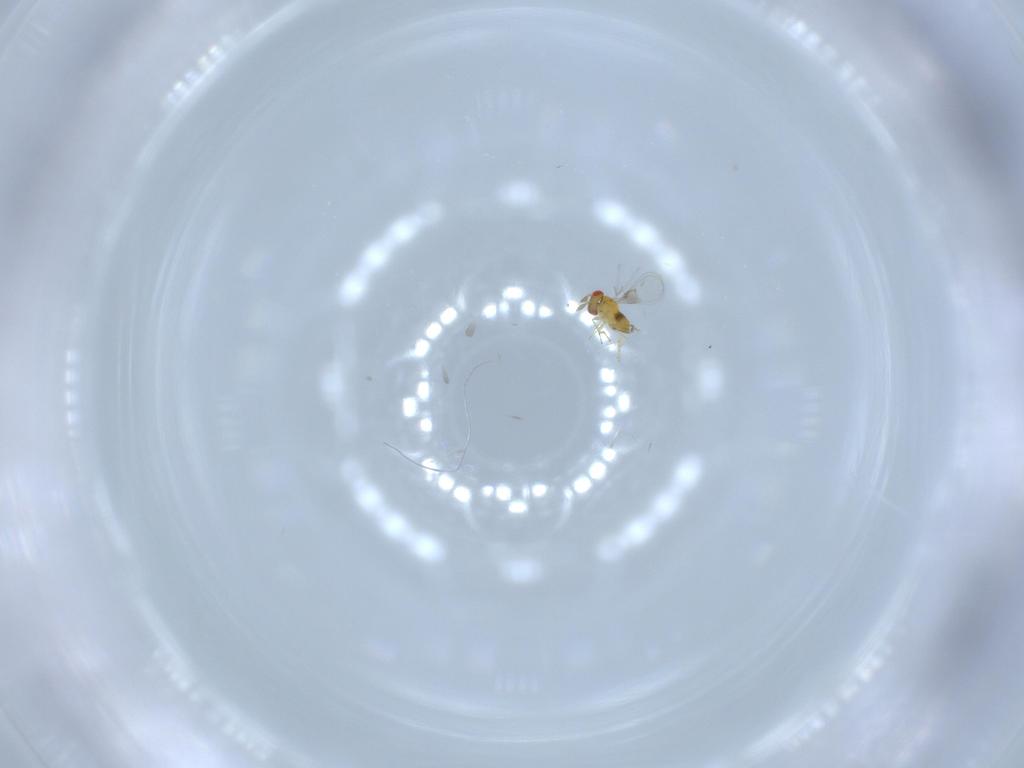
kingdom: Animalia
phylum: Arthropoda
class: Insecta
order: Hymenoptera
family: Trichogrammatidae
